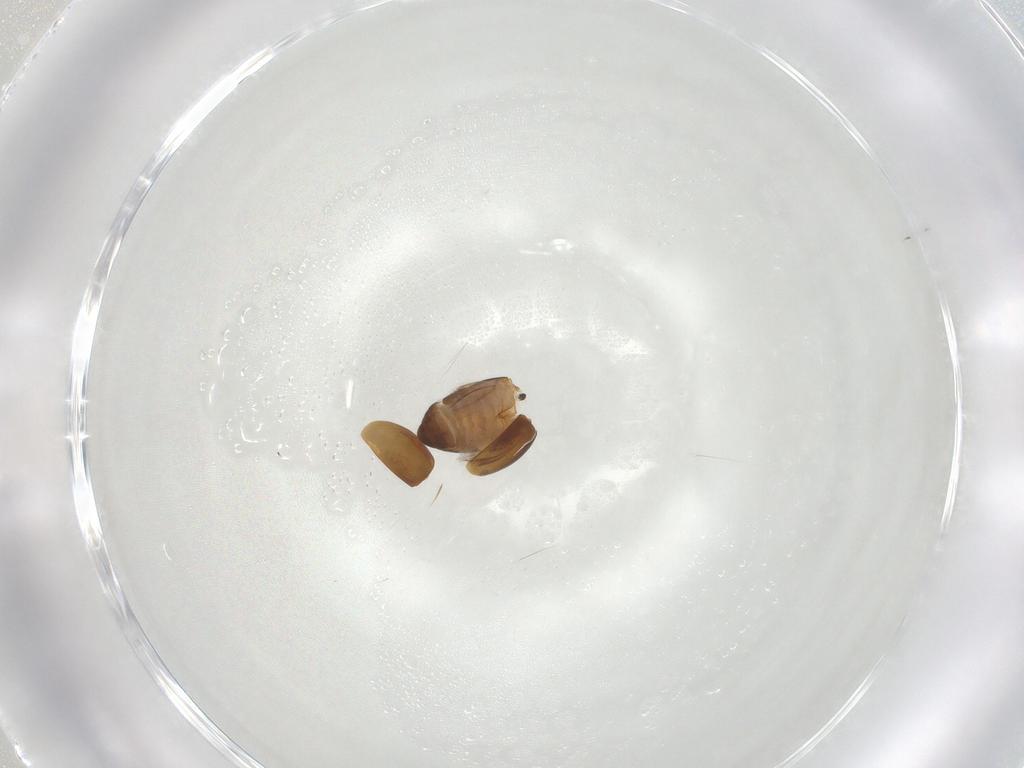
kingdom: Animalia
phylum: Arthropoda
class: Insecta
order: Coleoptera
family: Corylophidae
